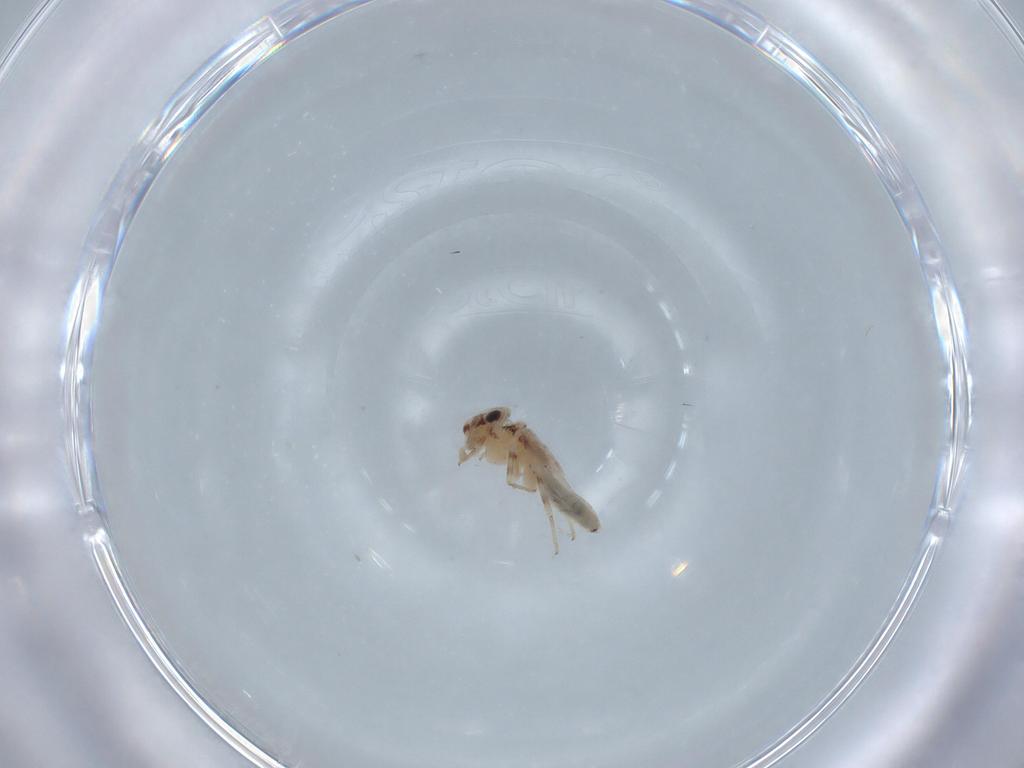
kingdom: Animalia
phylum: Arthropoda
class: Insecta
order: Psocodea
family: Lepidopsocidae
